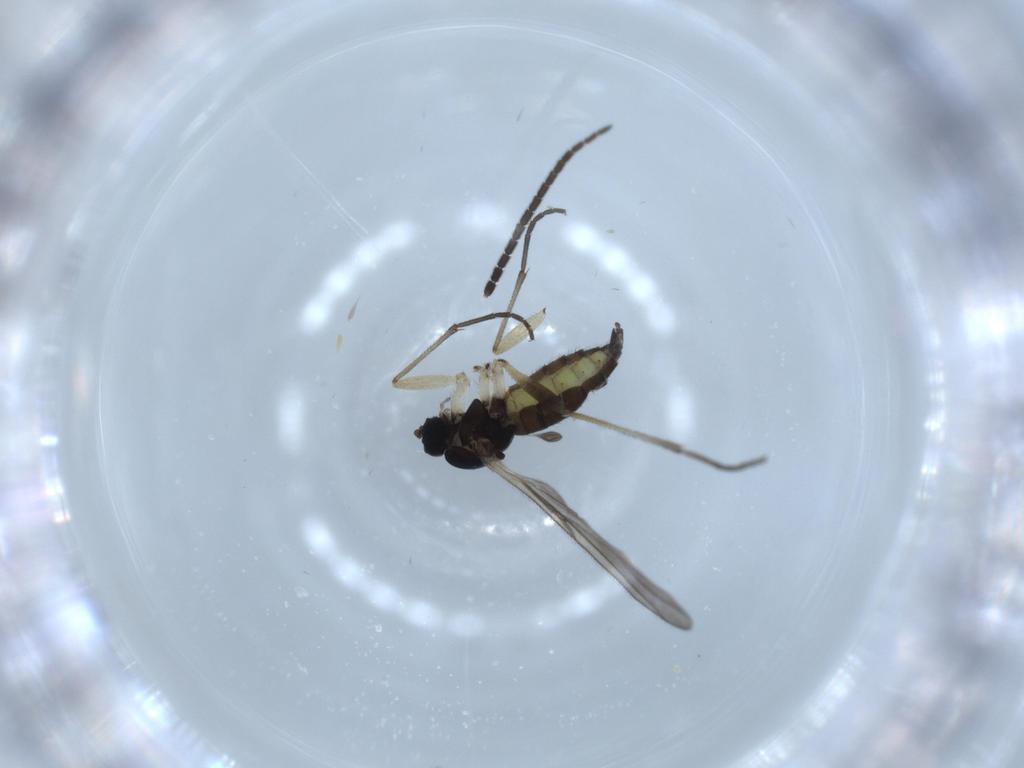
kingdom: Animalia
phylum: Arthropoda
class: Insecta
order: Diptera
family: Sciaridae
